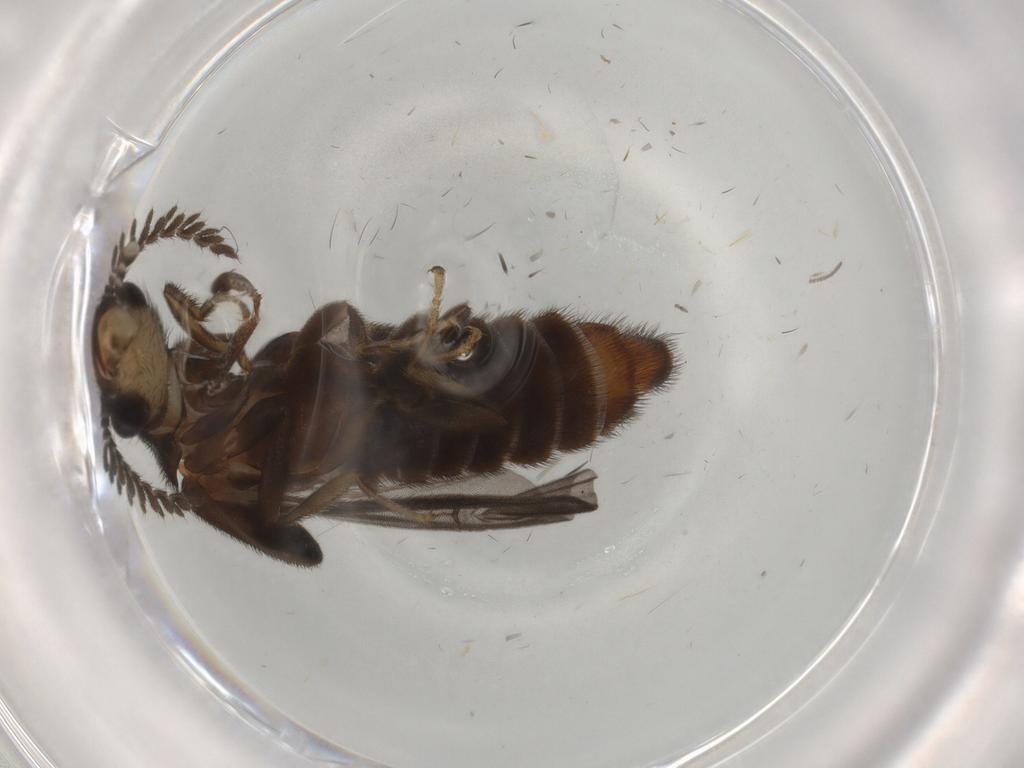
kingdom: Animalia
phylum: Arthropoda
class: Insecta
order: Coleoptera
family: Phengodidae
